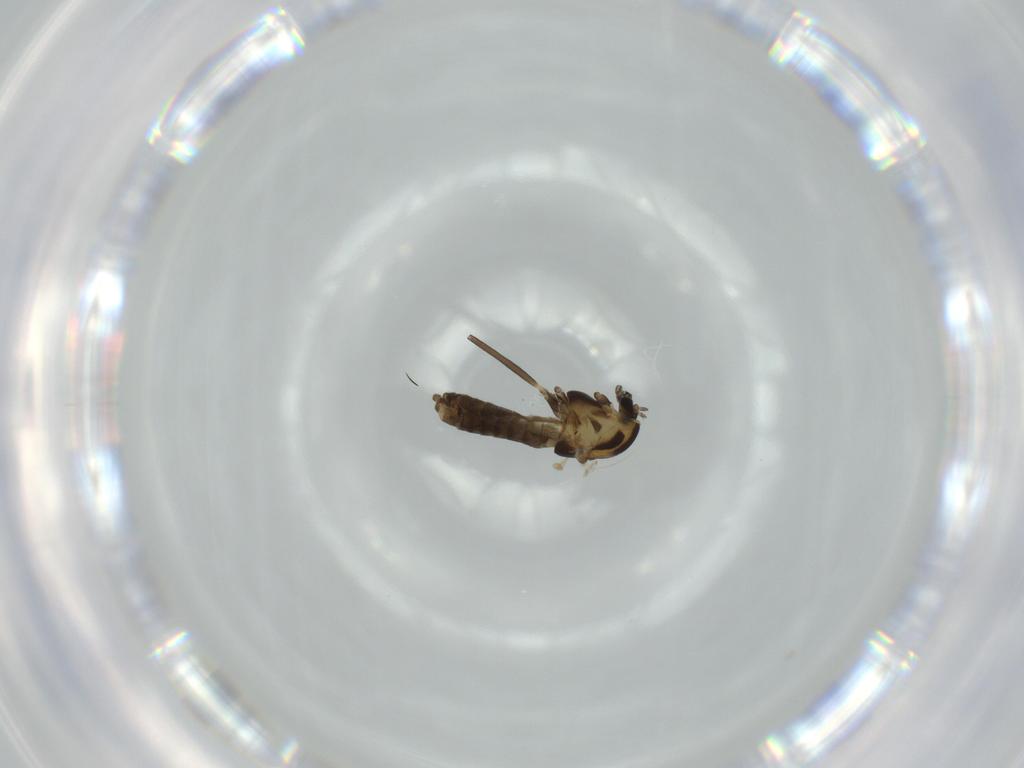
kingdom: Animalia
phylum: Arthropoda
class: Insecta
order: Diptera
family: Chironomidae
